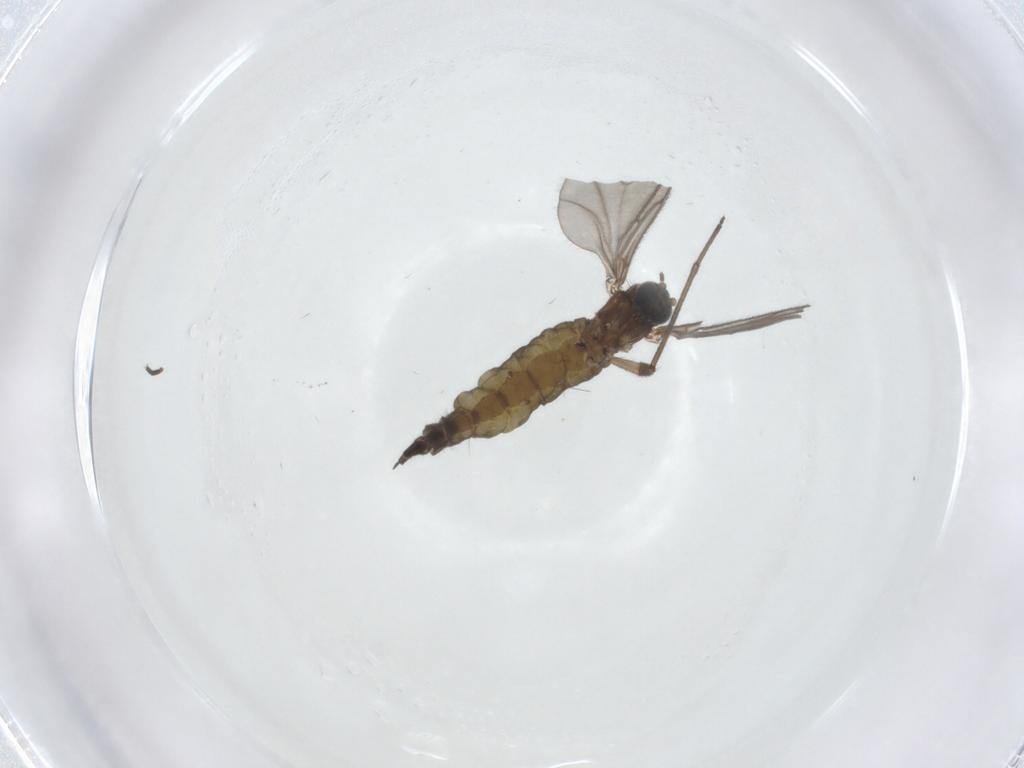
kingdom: Animalia
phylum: Arthropoda
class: Insecta
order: Diptera
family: Sciaridae
